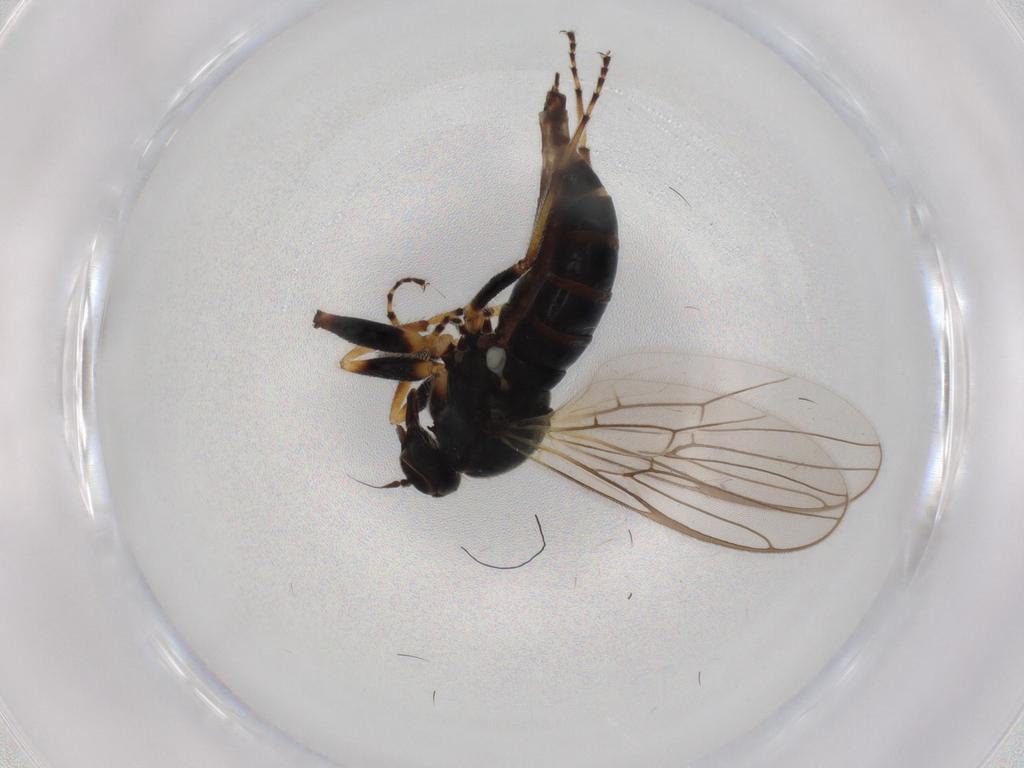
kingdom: Animalia
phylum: Arthropoda
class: Insecta
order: Diptera
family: Hybotidae
